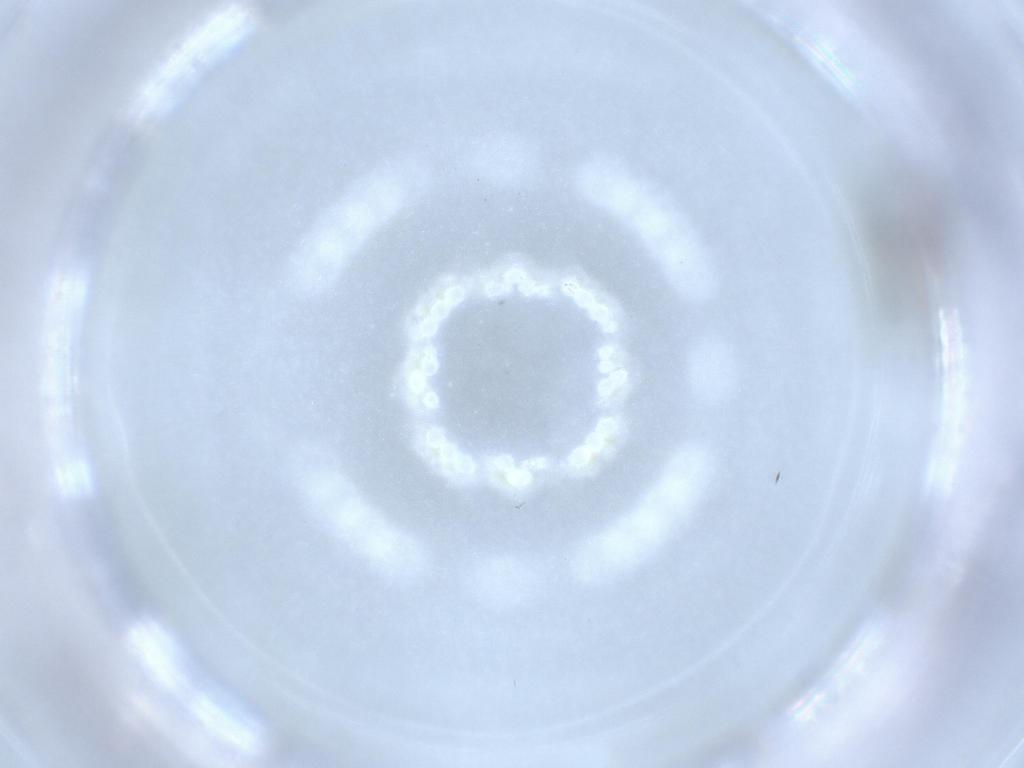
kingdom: Animalia
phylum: Arthropoda
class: Insecta
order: Diptera
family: Psychodidae
